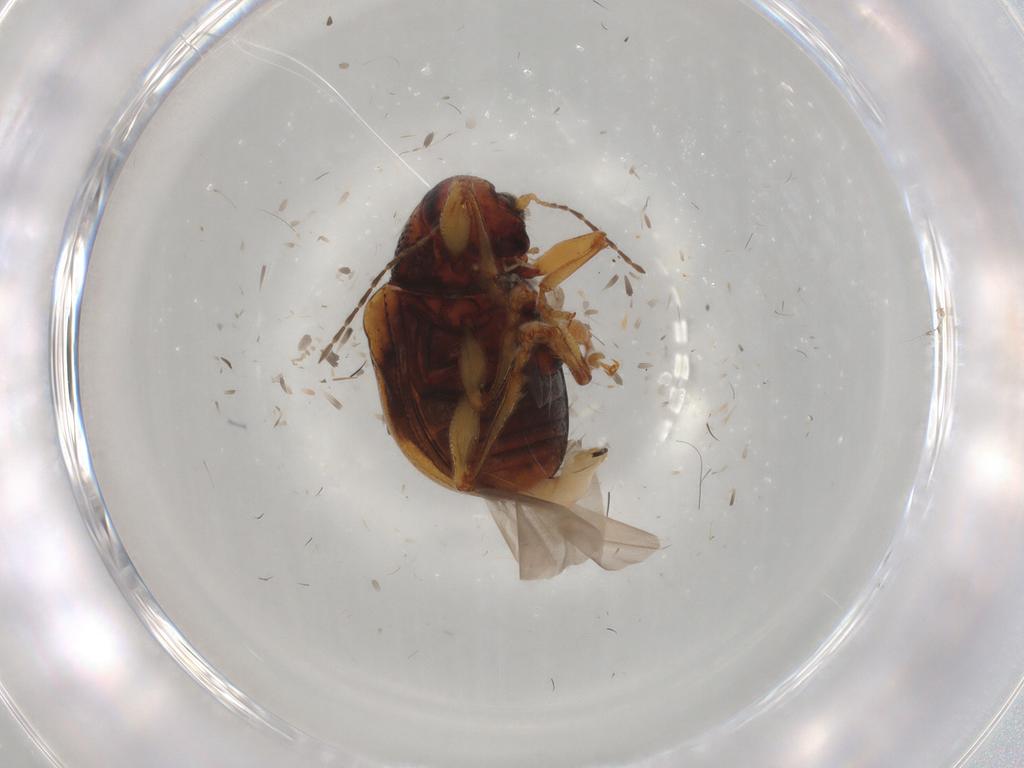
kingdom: Animalia
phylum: Arthropoda
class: Insecta
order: Coleoptera
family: Chrysomelidae
